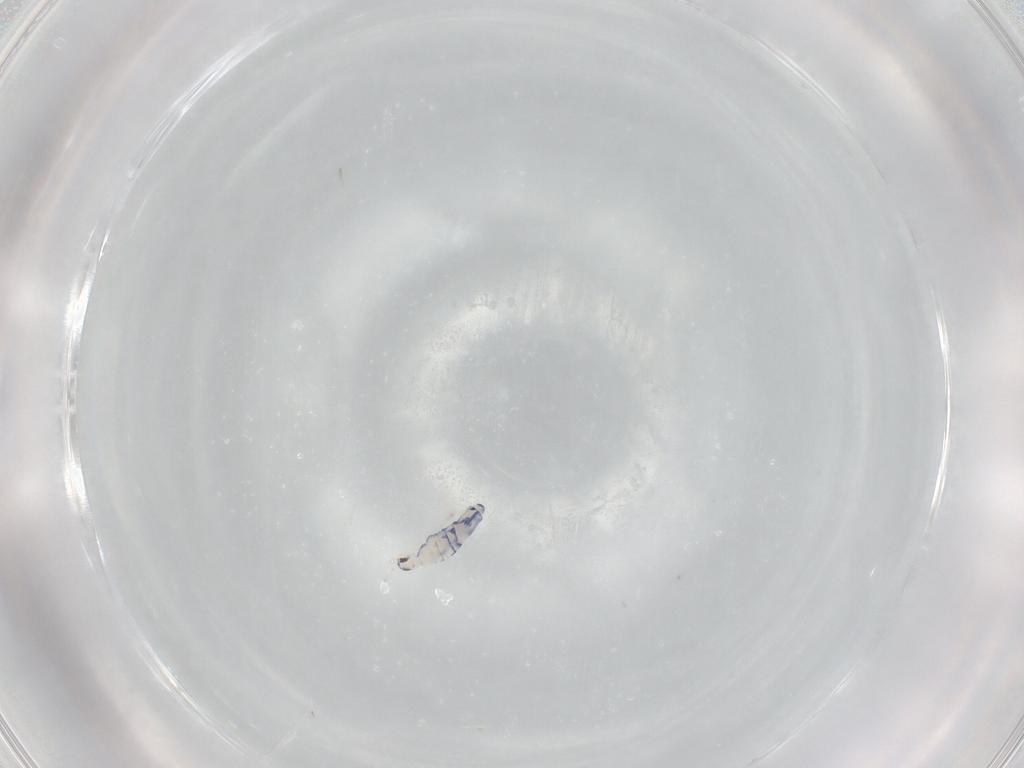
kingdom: Animalia
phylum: Arthropoda
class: Collembola
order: Entomobryomorpha
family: Entomobryidae
